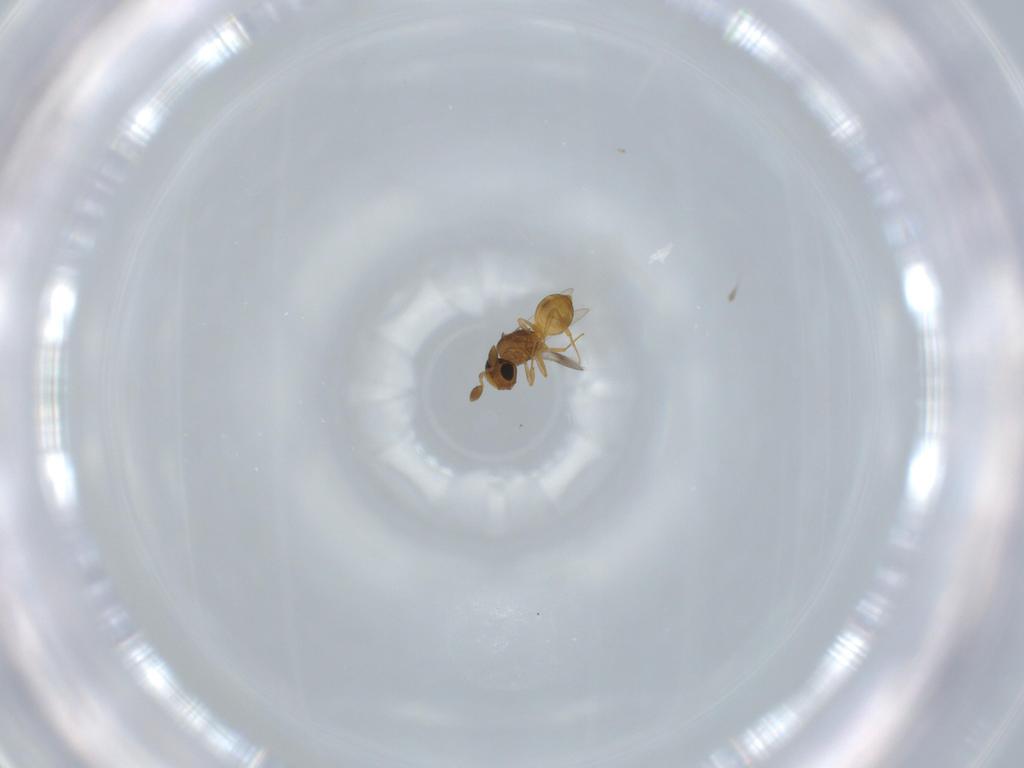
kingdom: Animalia
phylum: Arthropoda
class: Insecta
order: Hymenoptera
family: Scelionidae
